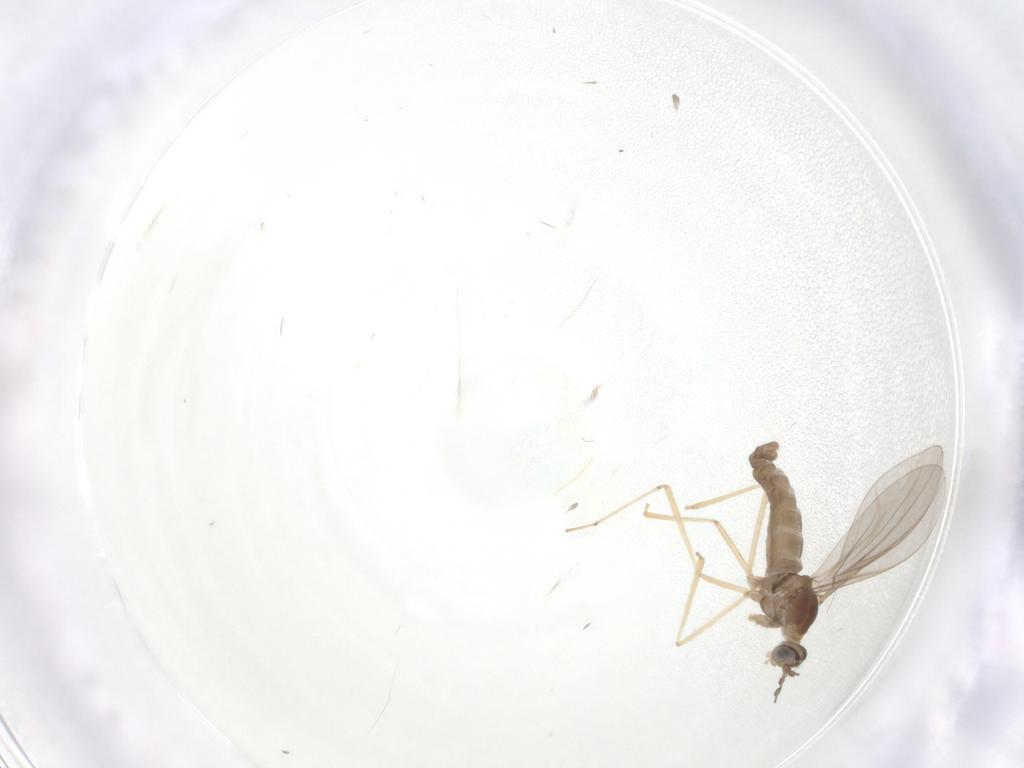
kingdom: Animalia
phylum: Arthropoda
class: Insecta
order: Diptera
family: Cecidomyiidae
